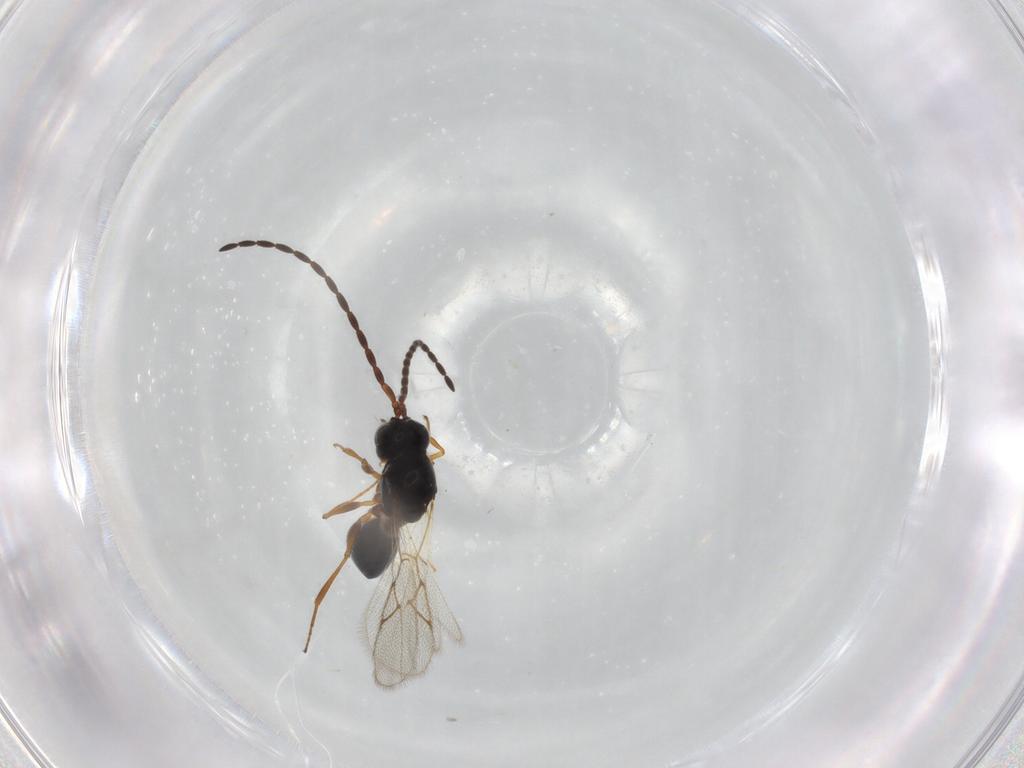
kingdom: Animalia
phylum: Arthropoda
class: Insecta
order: Hymenoptera
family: Figitidae
